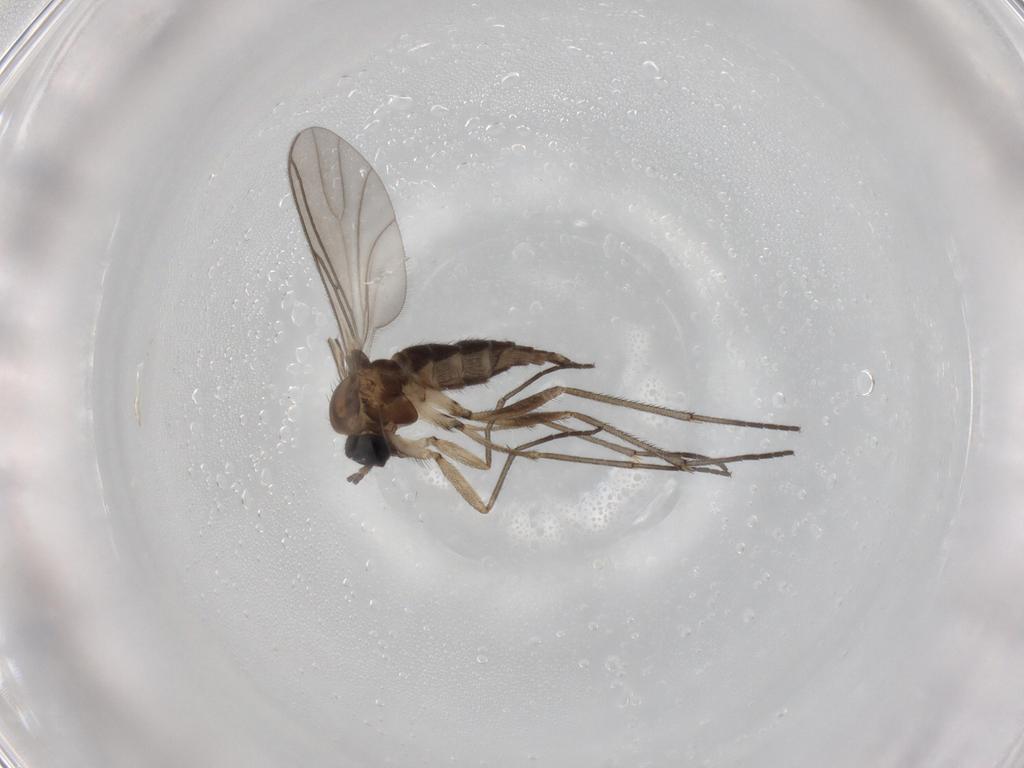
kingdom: Animalia
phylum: Arthropoda
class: Insecta
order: Diptera
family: Sciaridae
